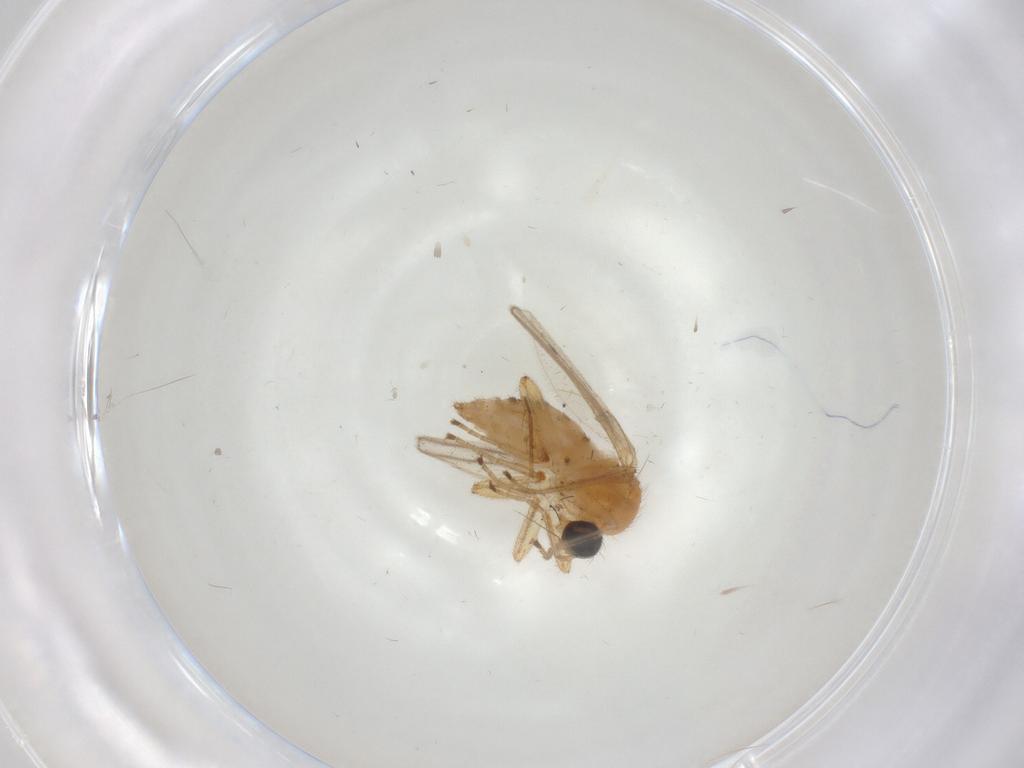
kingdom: Animalia
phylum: Arthropoda
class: Insecta
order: Diptera
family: Hybotidae
